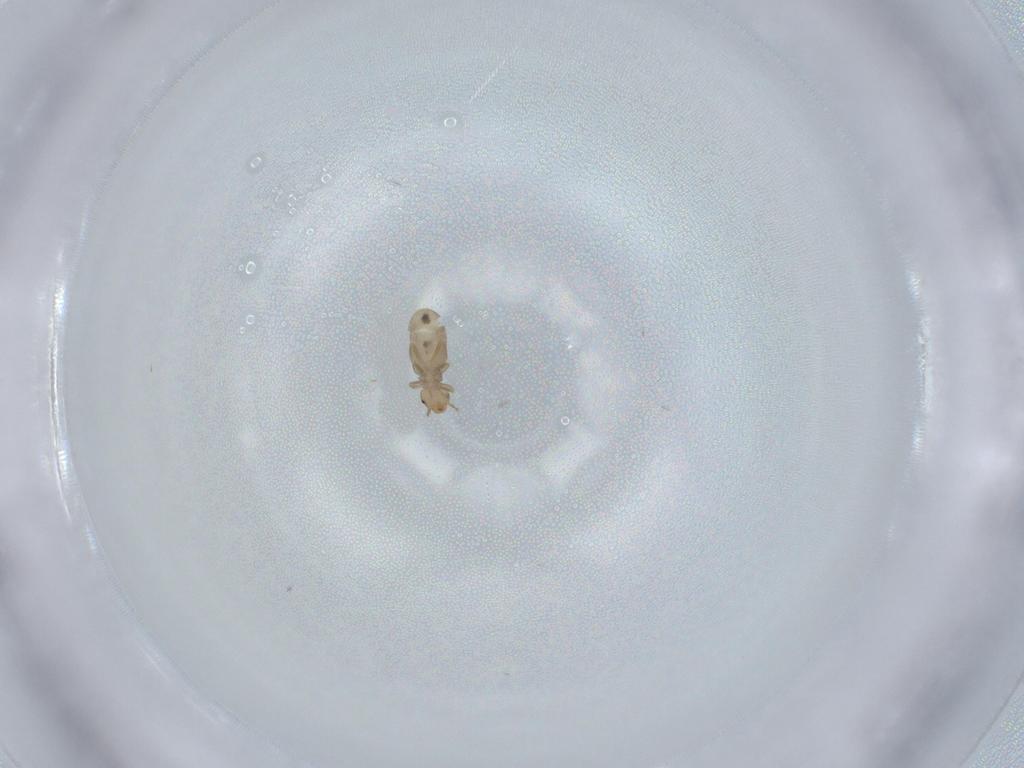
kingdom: Animalia
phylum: Arthropoda
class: Insecta
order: Psocodea
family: Liposcelididae
